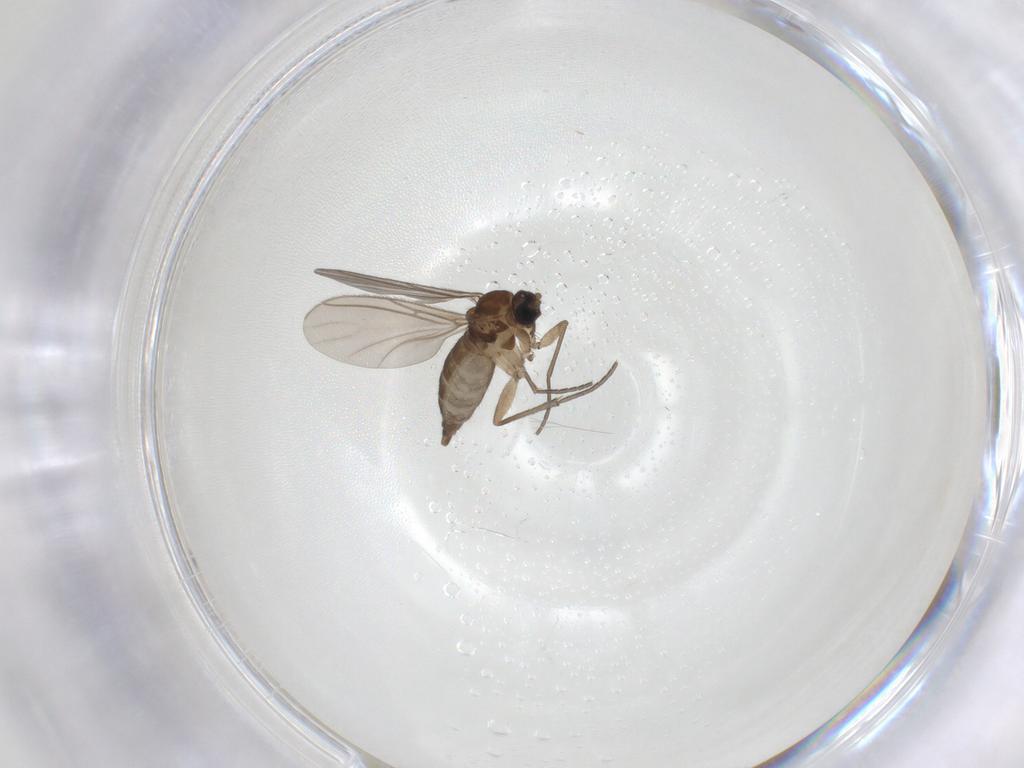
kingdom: Animalia
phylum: Arthropoda
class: Insecta
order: Diptera
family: Sciaridae
